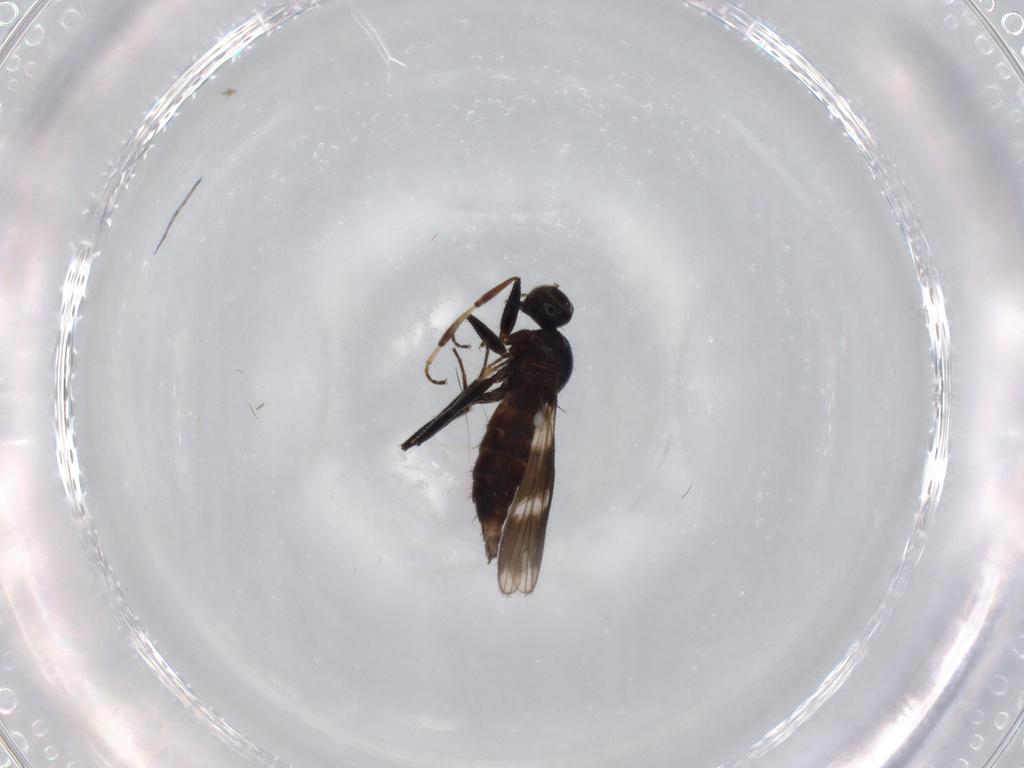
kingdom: Animalia
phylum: Arthropoda
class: Insecta
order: Diptera
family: Hybotidae
